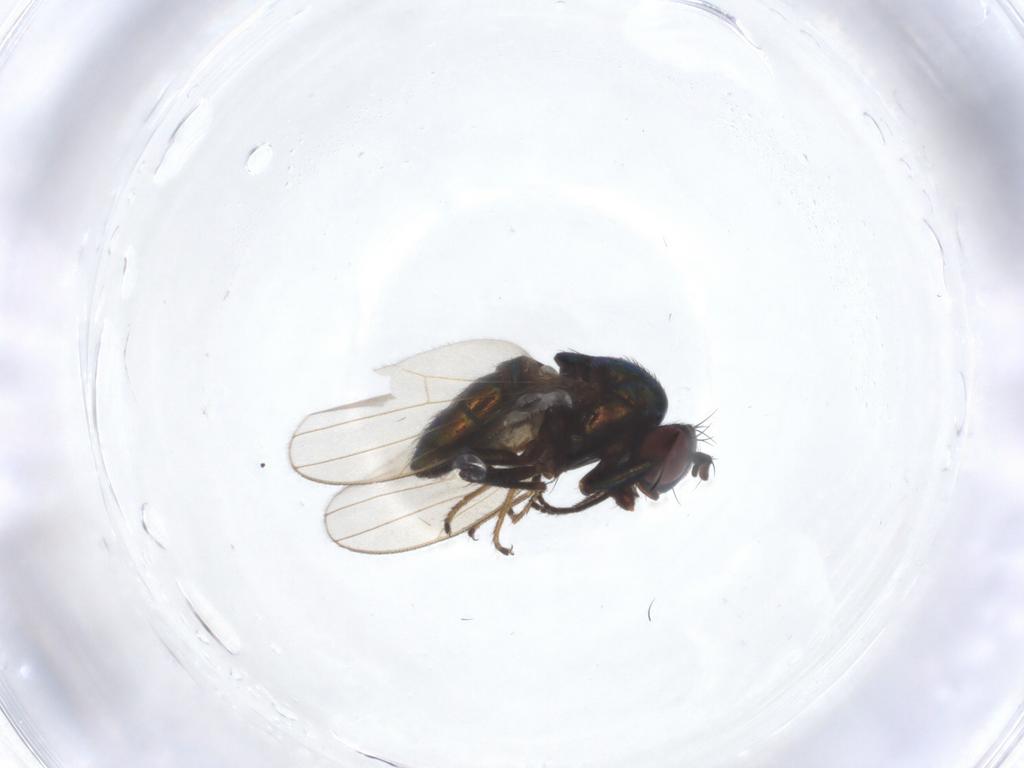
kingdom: Animalia
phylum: Arthropoda
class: Insecta
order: Diptera
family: Ephydridae
